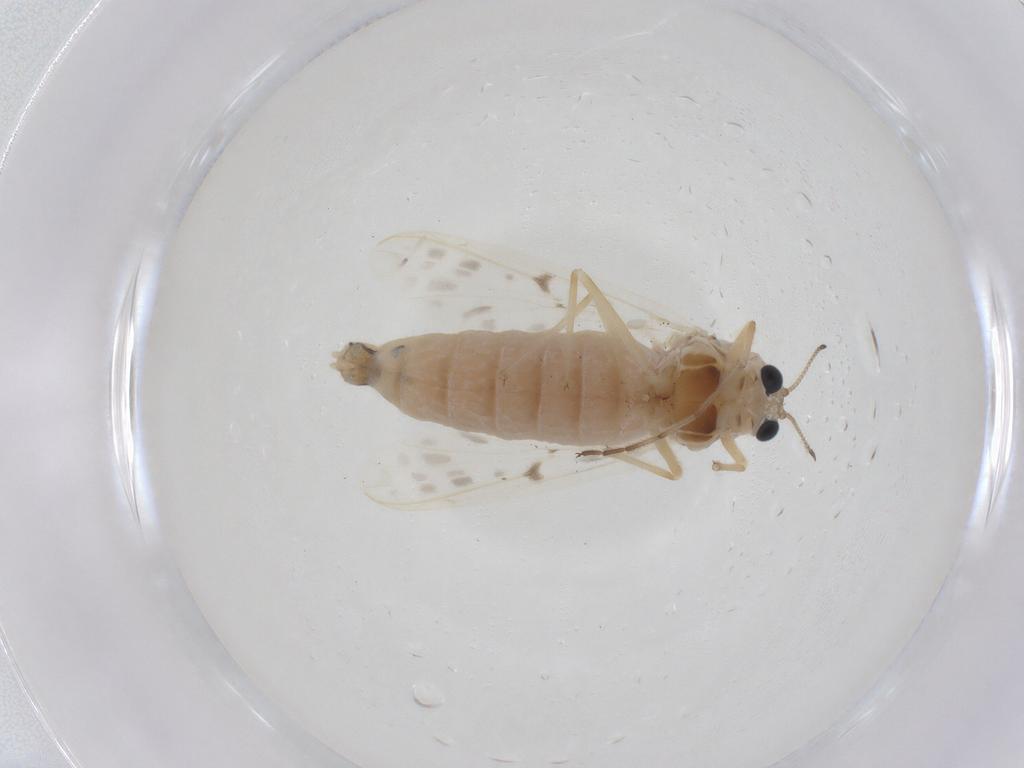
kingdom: Animalia
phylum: Arthropoda
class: Insecta
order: Diptera
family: Chironomidae
